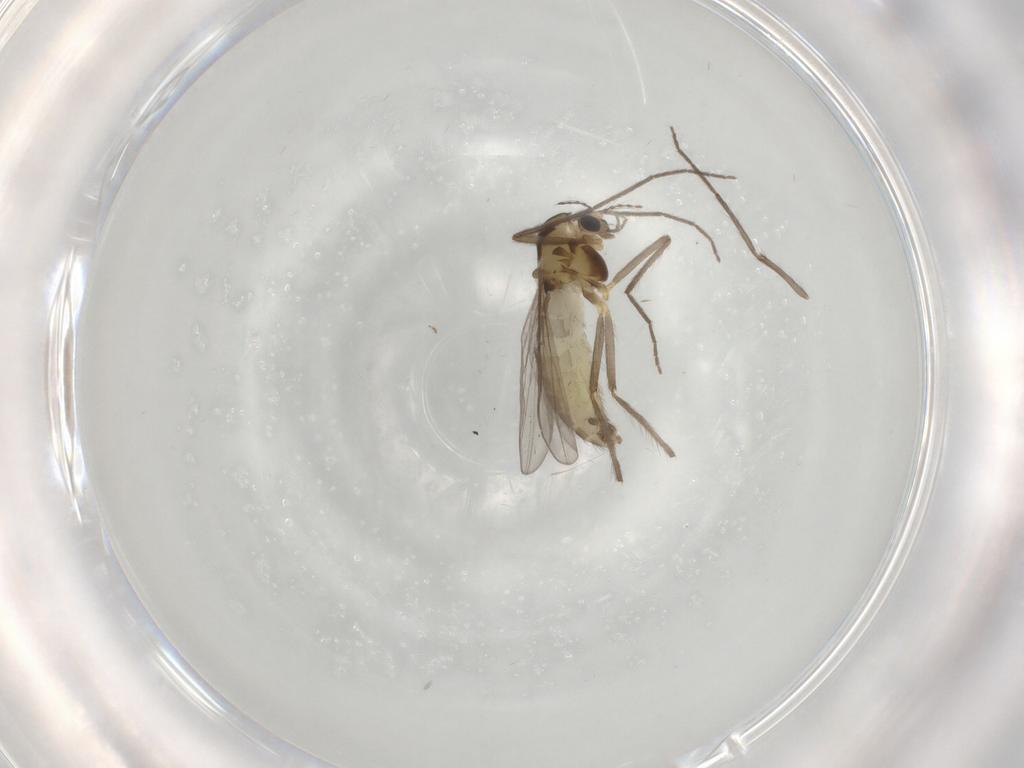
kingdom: Animalia
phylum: Arthropoda
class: Insecta
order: Diptera
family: Chironomidae
